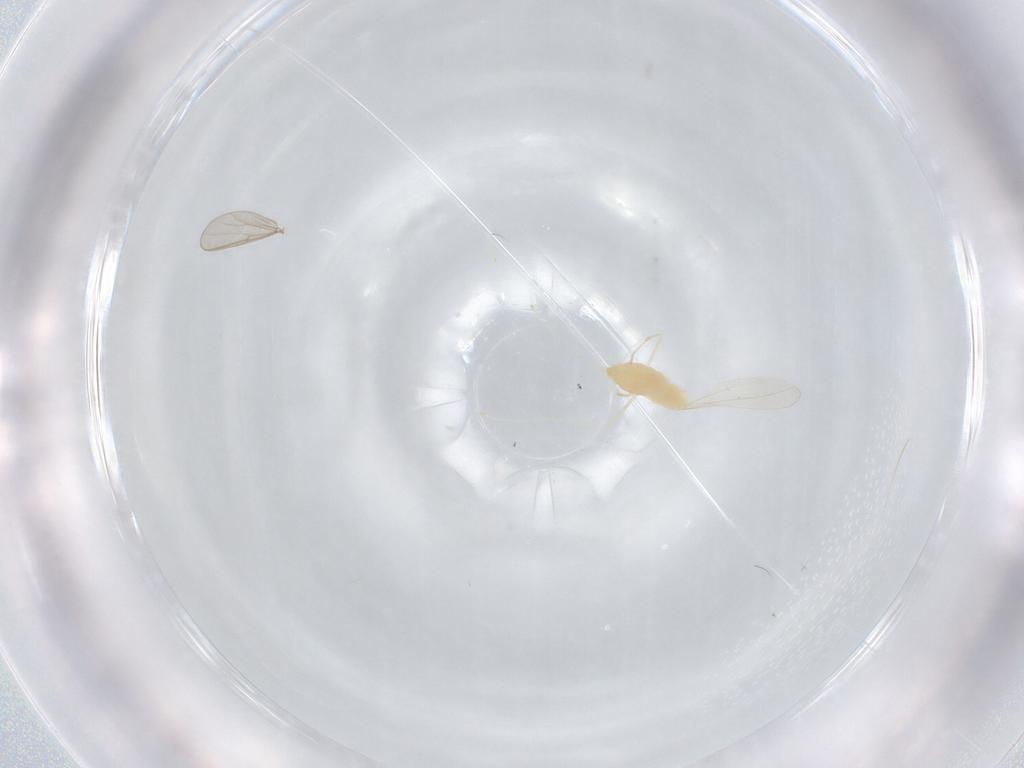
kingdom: Animalia
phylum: Arthropoda
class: Insecta
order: Diptera
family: Cecidomyiidae
